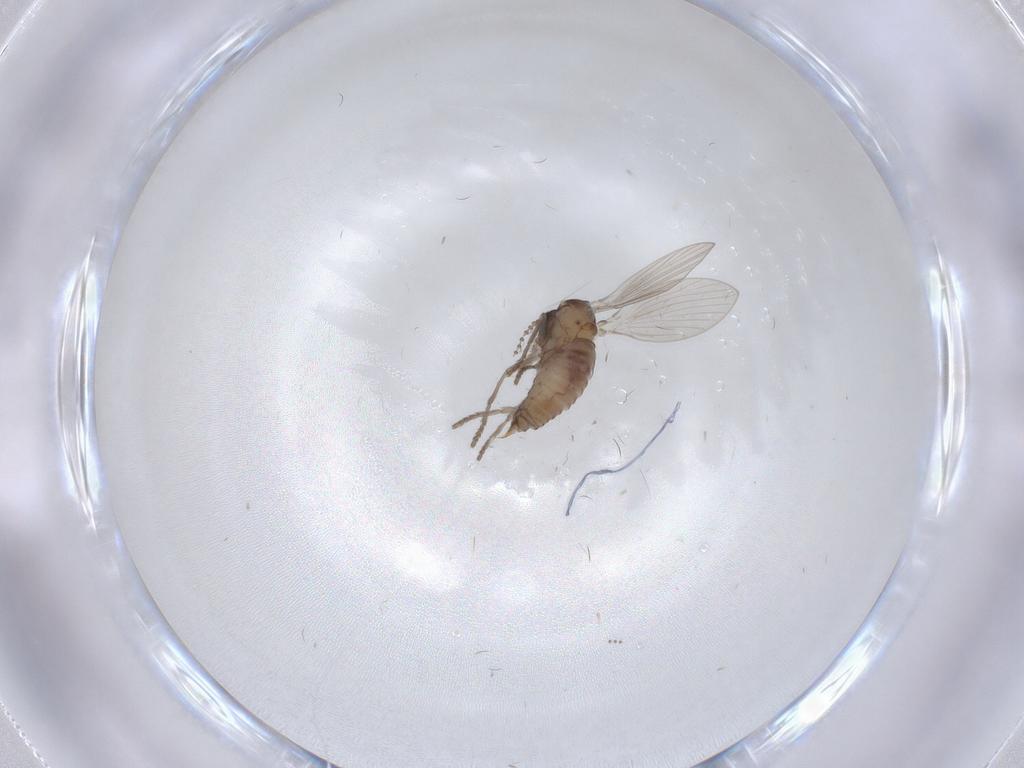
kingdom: Animalia
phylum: Arthropoda
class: Insecta
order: Diptera
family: Psychodidae
